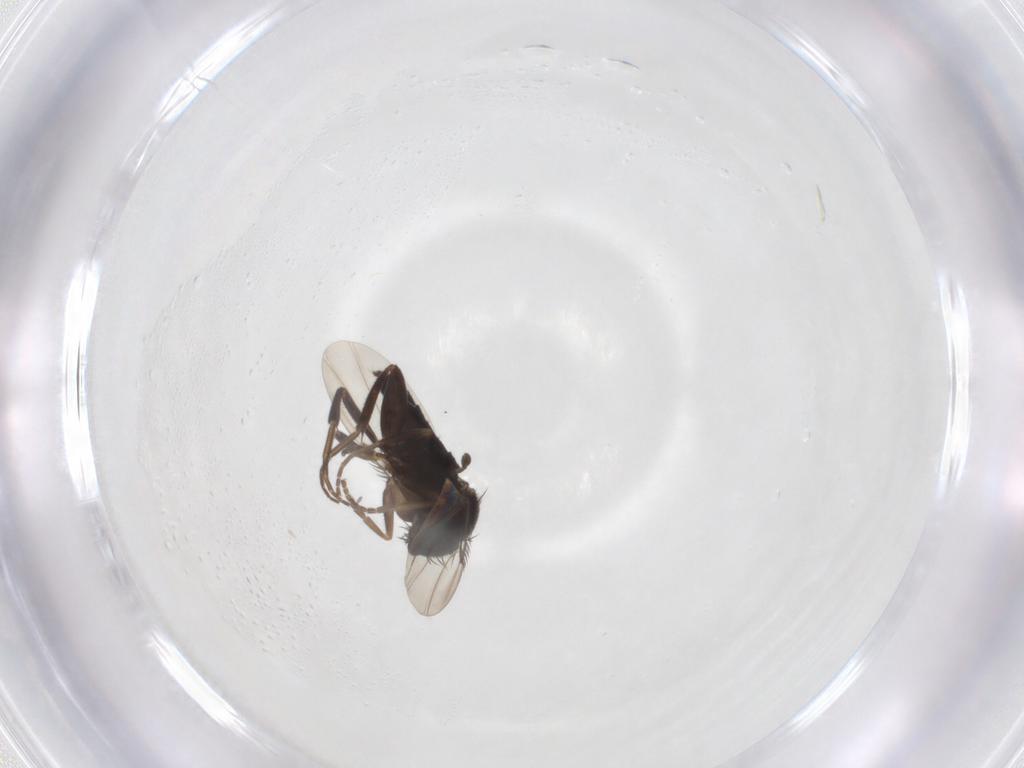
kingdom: Animalia
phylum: Arthropoda
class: Insecta
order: Diptera
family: Phoridae
